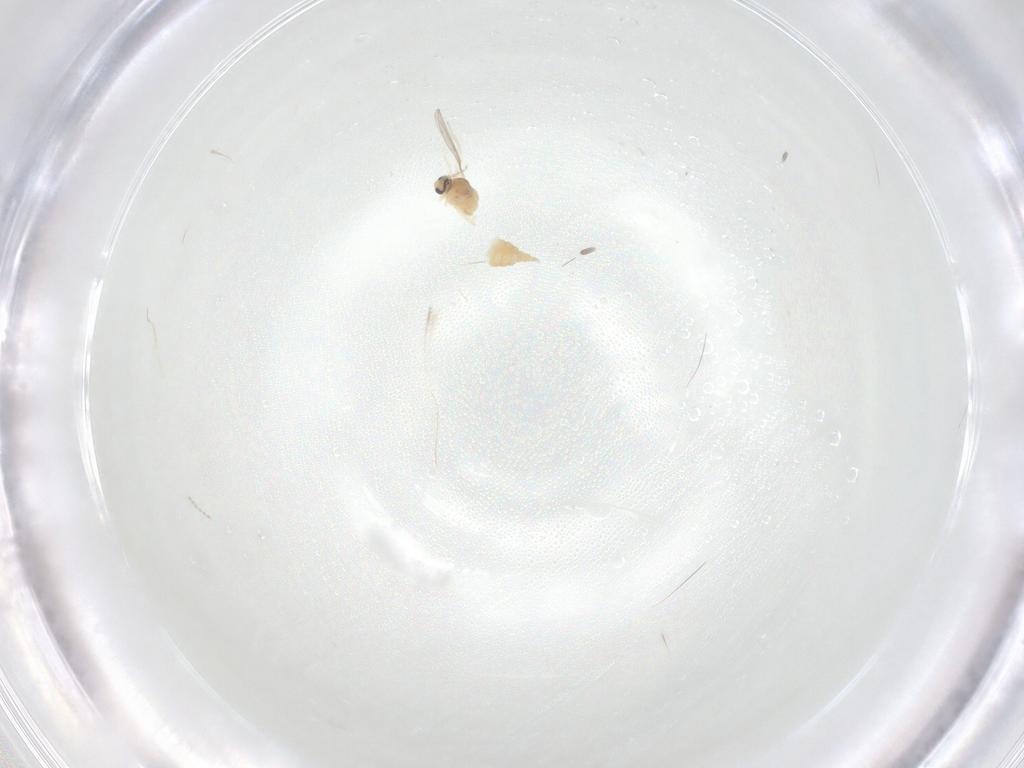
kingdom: Animalia
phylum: Arthropoda
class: Insecta
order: Diptera
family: Cecidomyiidae
